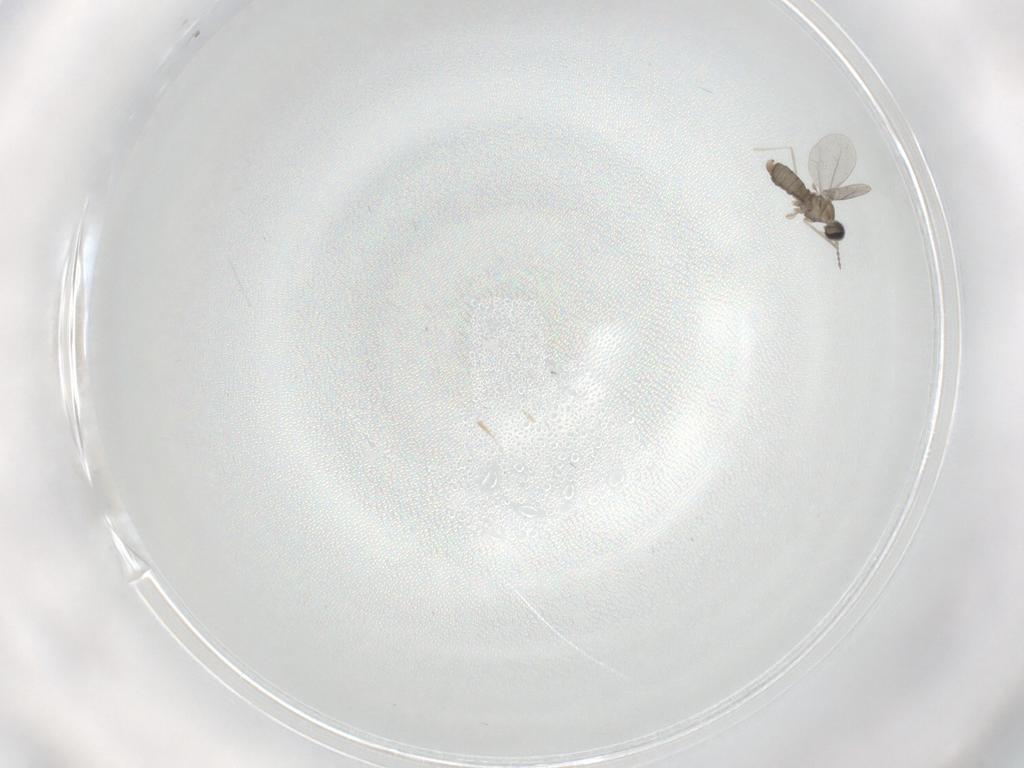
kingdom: Animalia
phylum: Arthropoda
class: Insecta
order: Diptera
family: Cecidomyiidae
